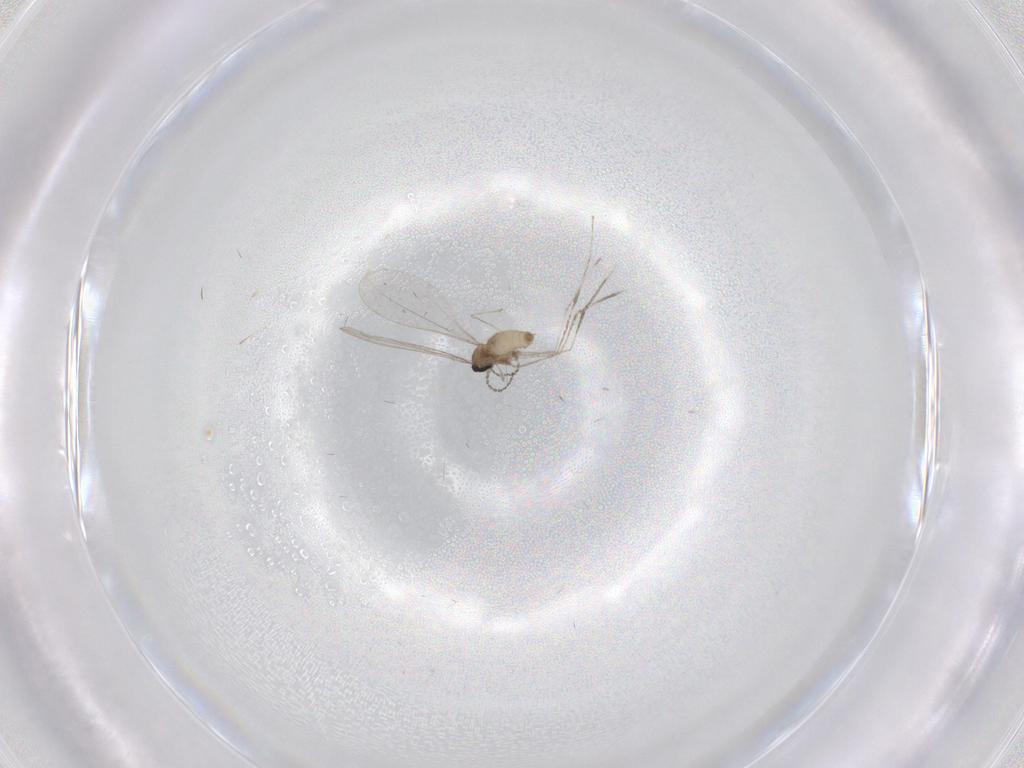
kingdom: Animalia
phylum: Arthropoda
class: Insecta
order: Diptera
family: Cecidomyiidae
